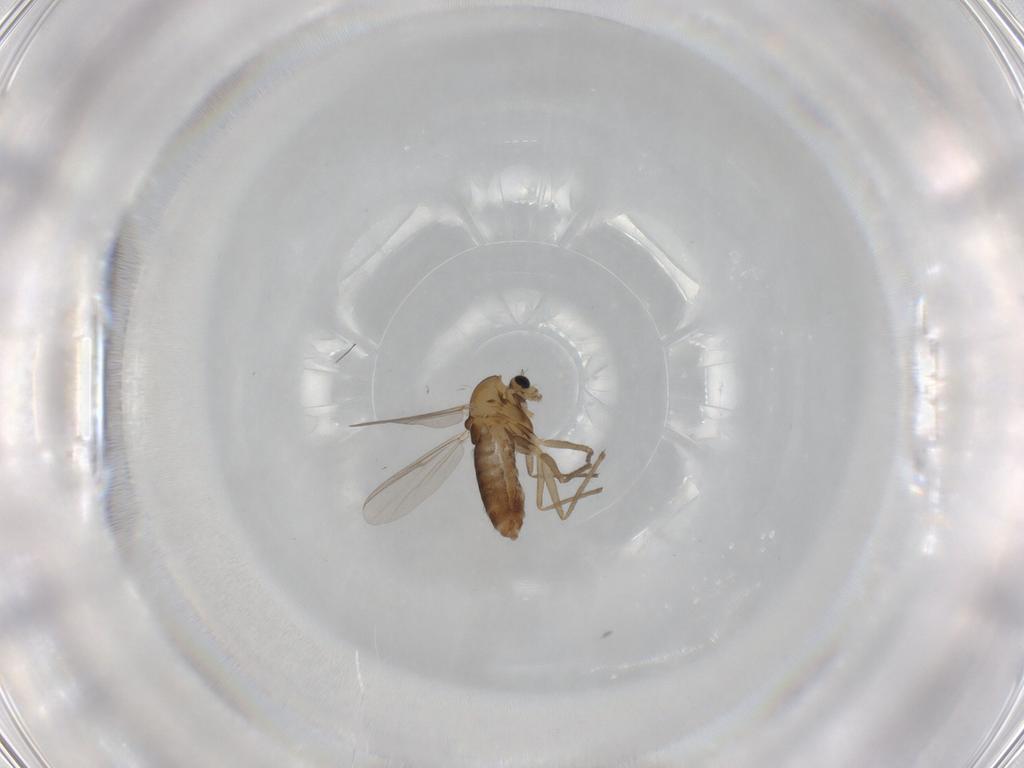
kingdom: Animalia
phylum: Arthropoda
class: Insecta
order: Diptera
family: Chironomidae
